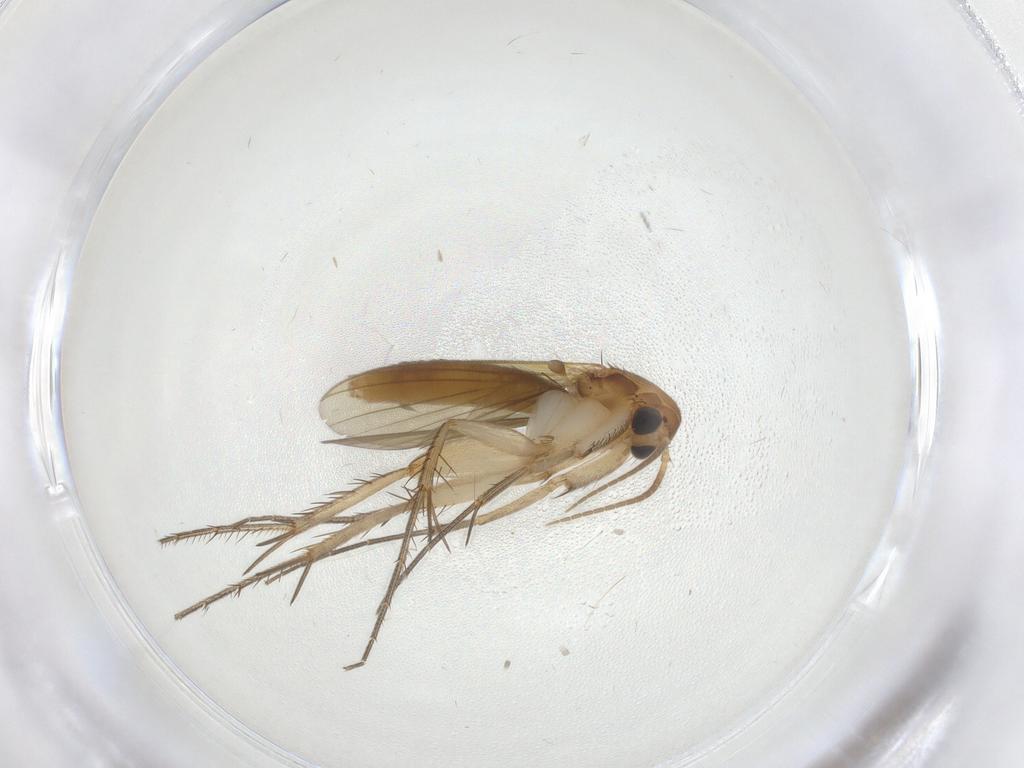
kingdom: Animalia
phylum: Arthropoda
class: Insecta
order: Diptera
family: Mycetophilidae
